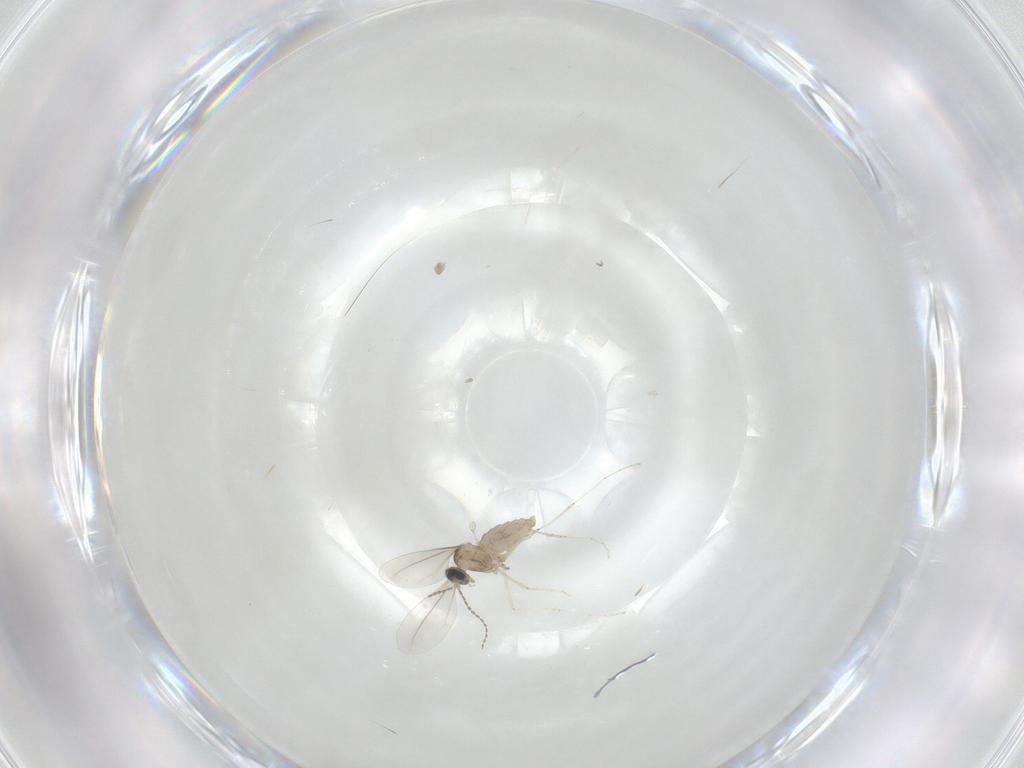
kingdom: Animalia
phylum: Arthropoda
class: Insecta
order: Diptera
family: Cecidomyiidae
